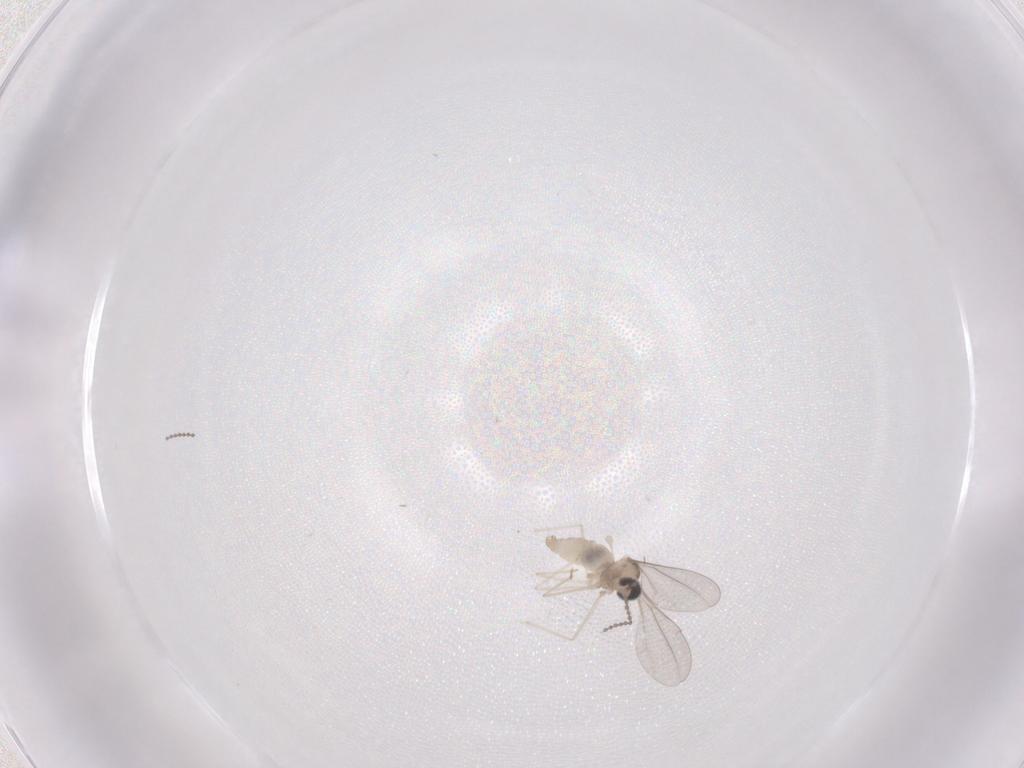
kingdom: Animalia
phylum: Arthropoda
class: Insecta
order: Diptera
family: Cecidomyiidae
